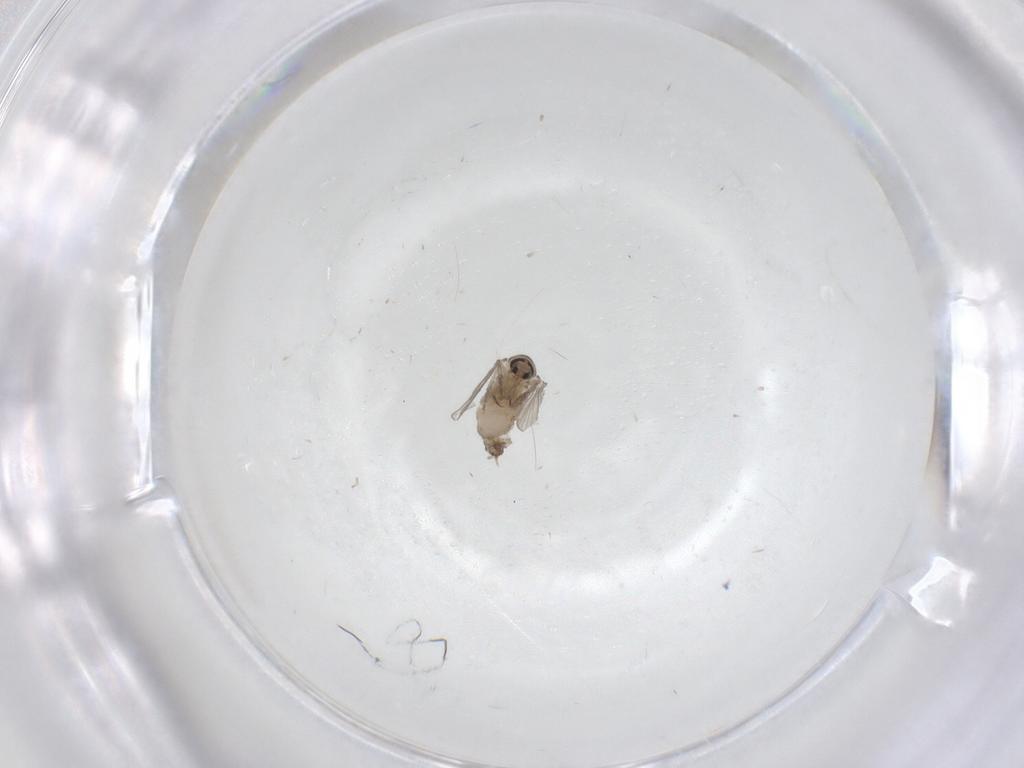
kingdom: Animalia
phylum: Arthropoda
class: Insecta
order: Diptera
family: Psychodidae
